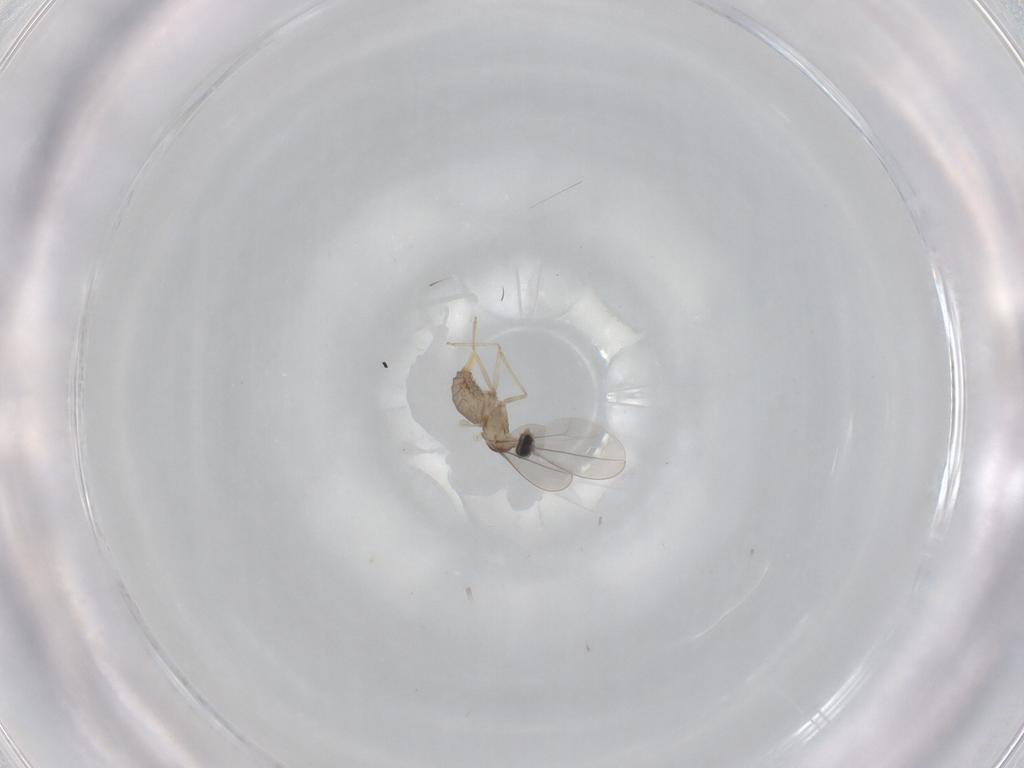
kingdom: Animalia
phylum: Arthropoda
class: Insecta
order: Diptera
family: Cecidomyiidae
